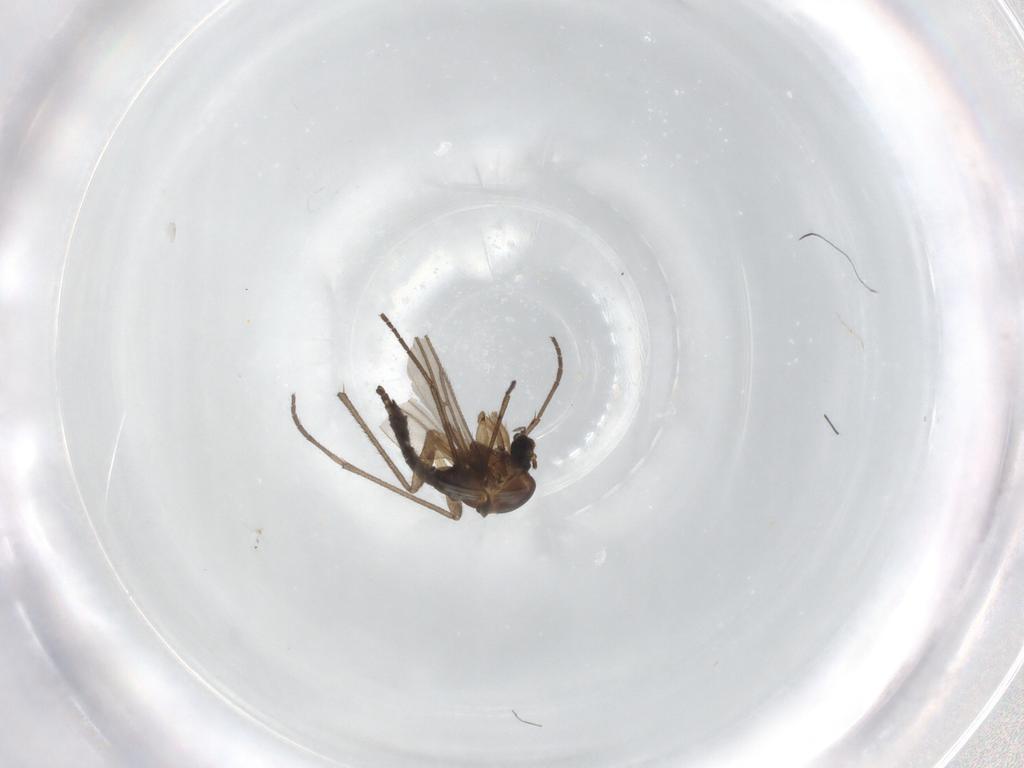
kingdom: Animalia
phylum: Arthropoda
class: Insecta
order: Diptera
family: Sciaridae
